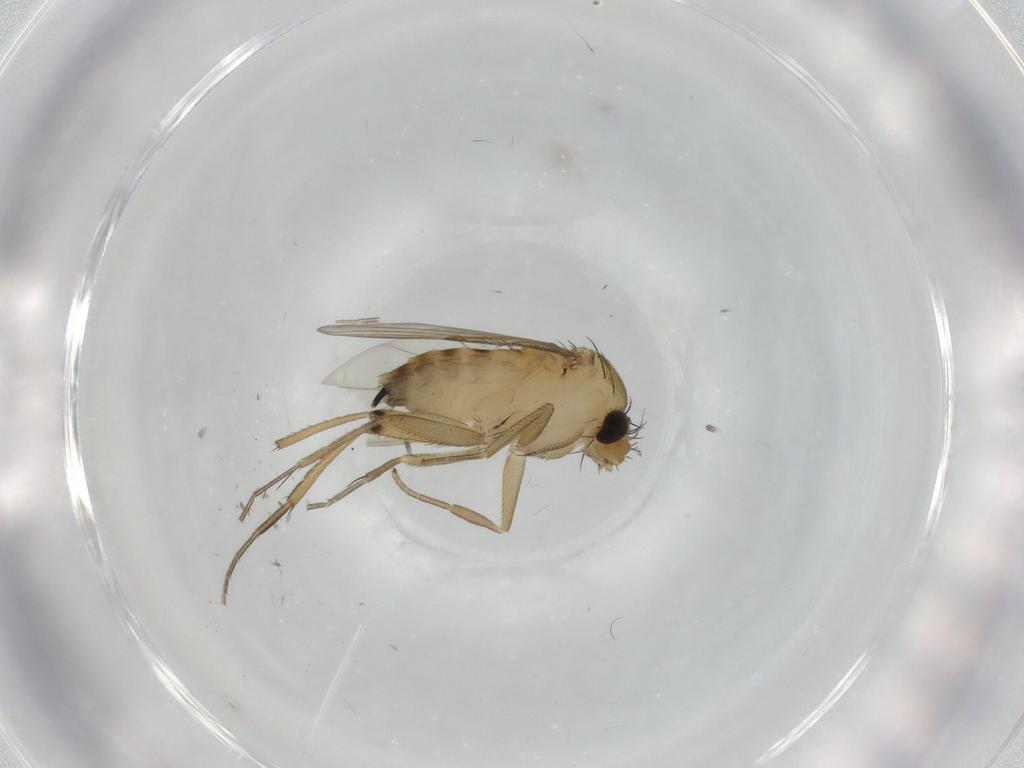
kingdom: Animalia
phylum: Arthropoda
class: Insecta
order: Diptera
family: Phoridae
